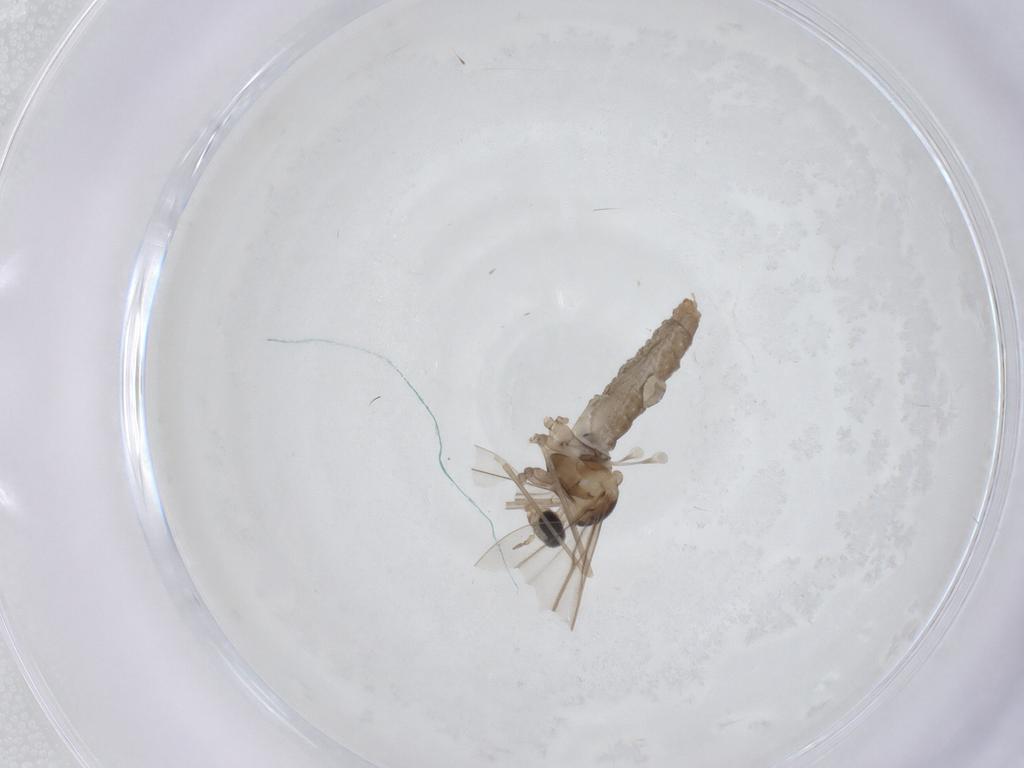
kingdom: Animalia
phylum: Arthropoda
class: Insecta
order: Diptera
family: Cecidomyiidae
